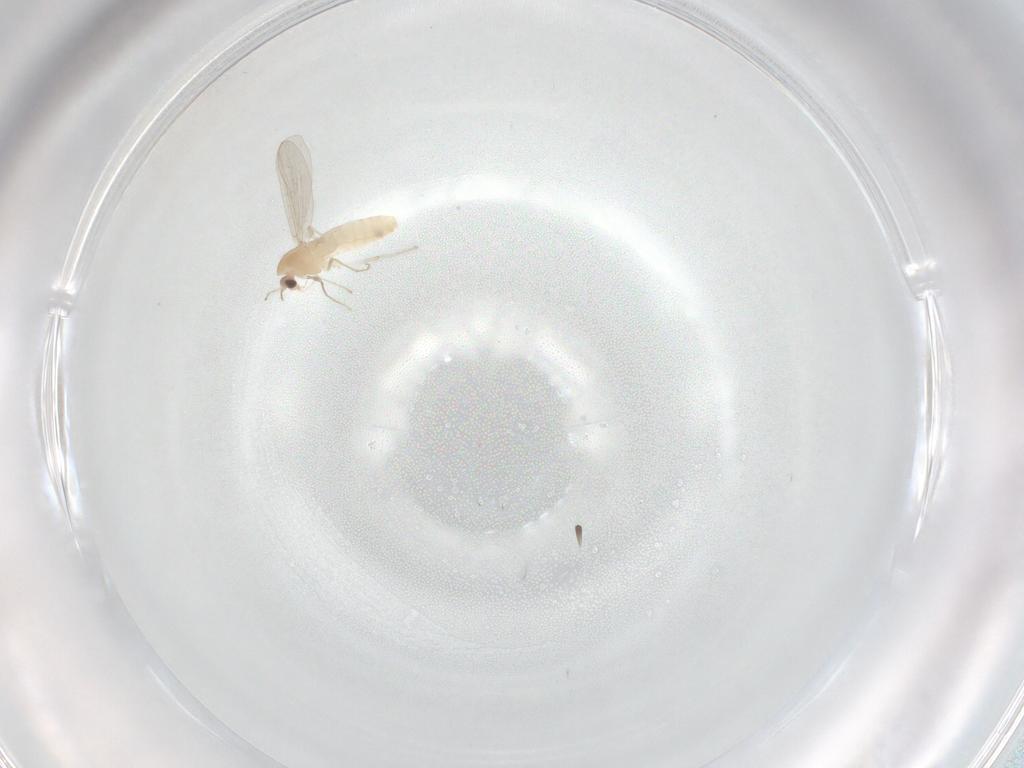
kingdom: Animalia
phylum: Arthropoda
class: Insecta
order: Diptera
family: Chironomidae
